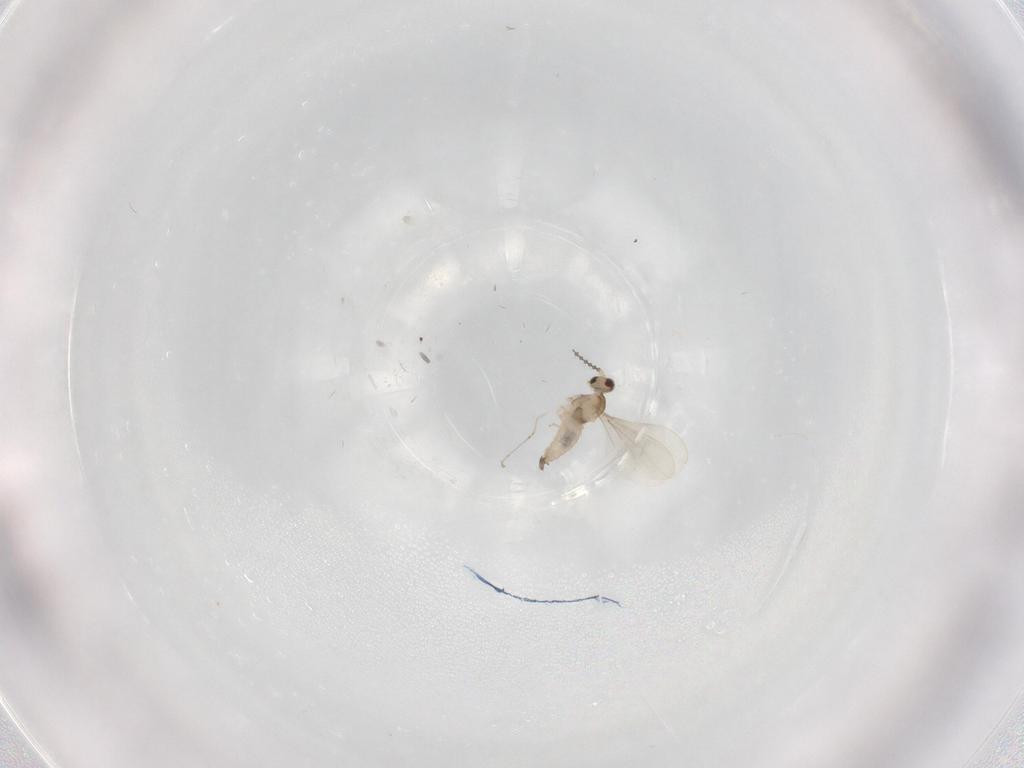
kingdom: Animalia
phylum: Arthropoda
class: Insecta
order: Diptera
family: Cecidomyiidae
